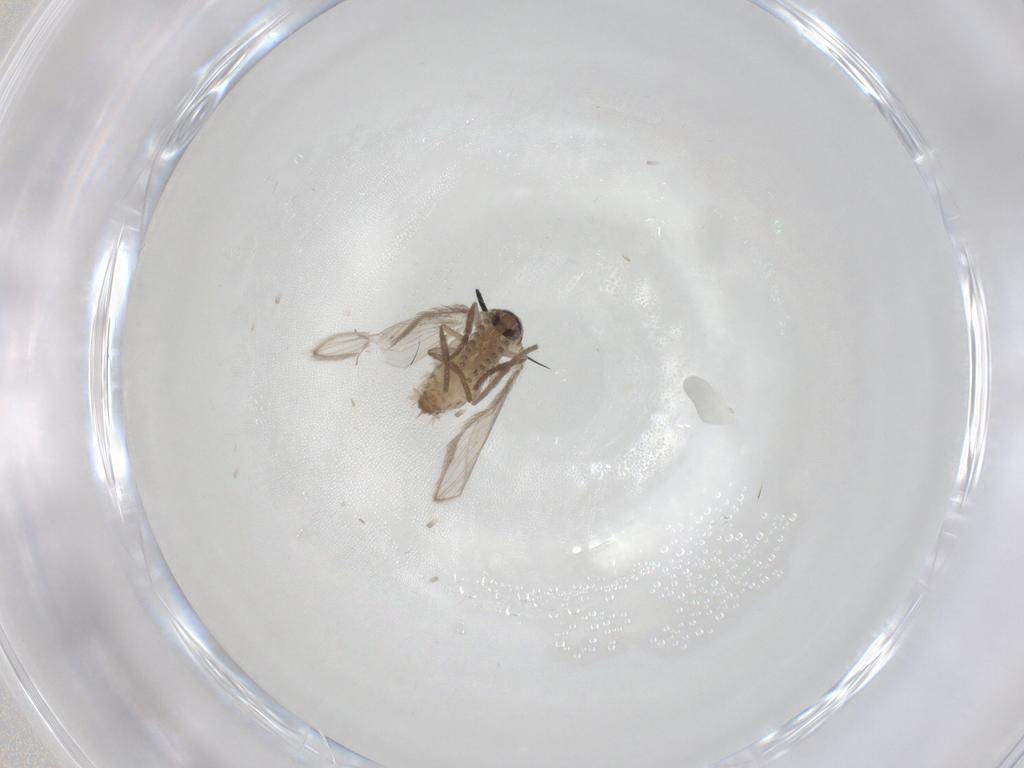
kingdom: Animalia
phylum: Arthropoda
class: Insecta
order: Diptera
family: Psychodidae
